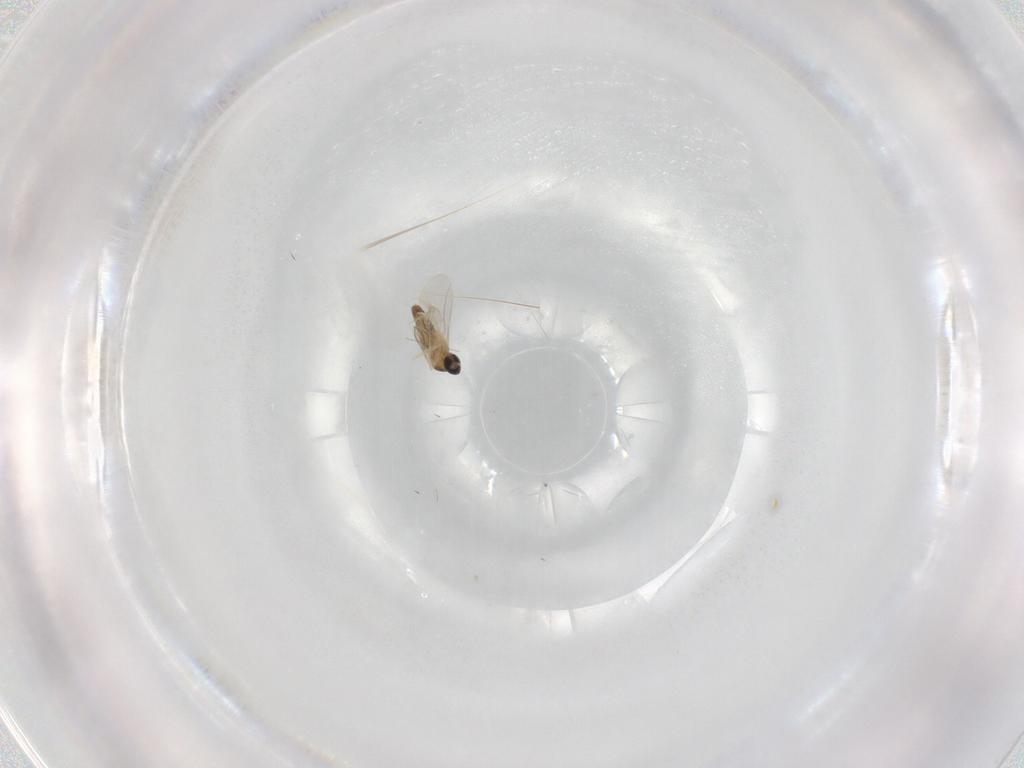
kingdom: Animalia
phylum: Arthropoda
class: Insecta
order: Diptera
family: Cecidomyiidae
